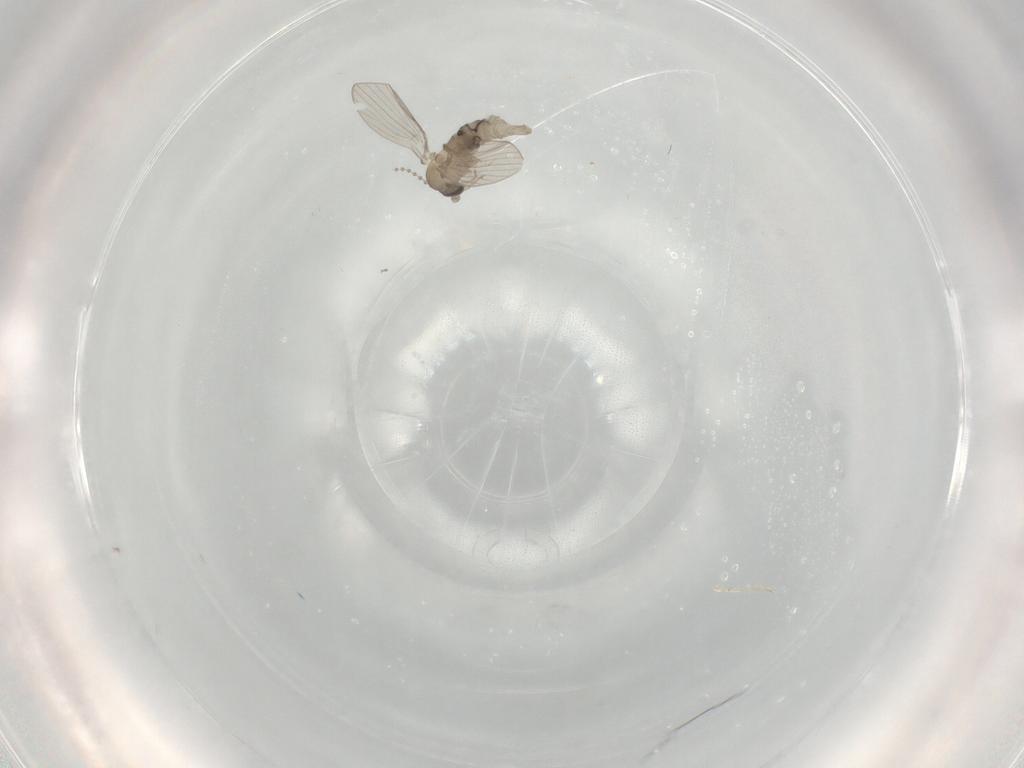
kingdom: Animalia
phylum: Arthropoda
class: Insecta
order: Diptera
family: Psychodidae
